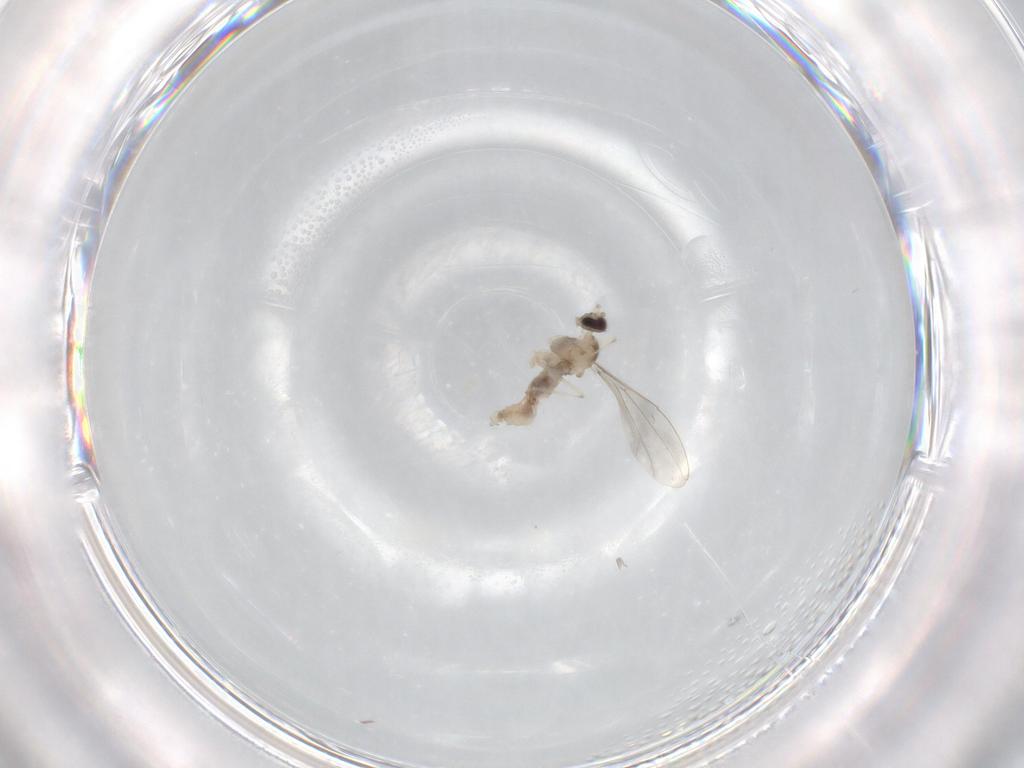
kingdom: Animalia
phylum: Arthropoda
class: Insecta
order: Diptera
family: Cecidomyiidae
